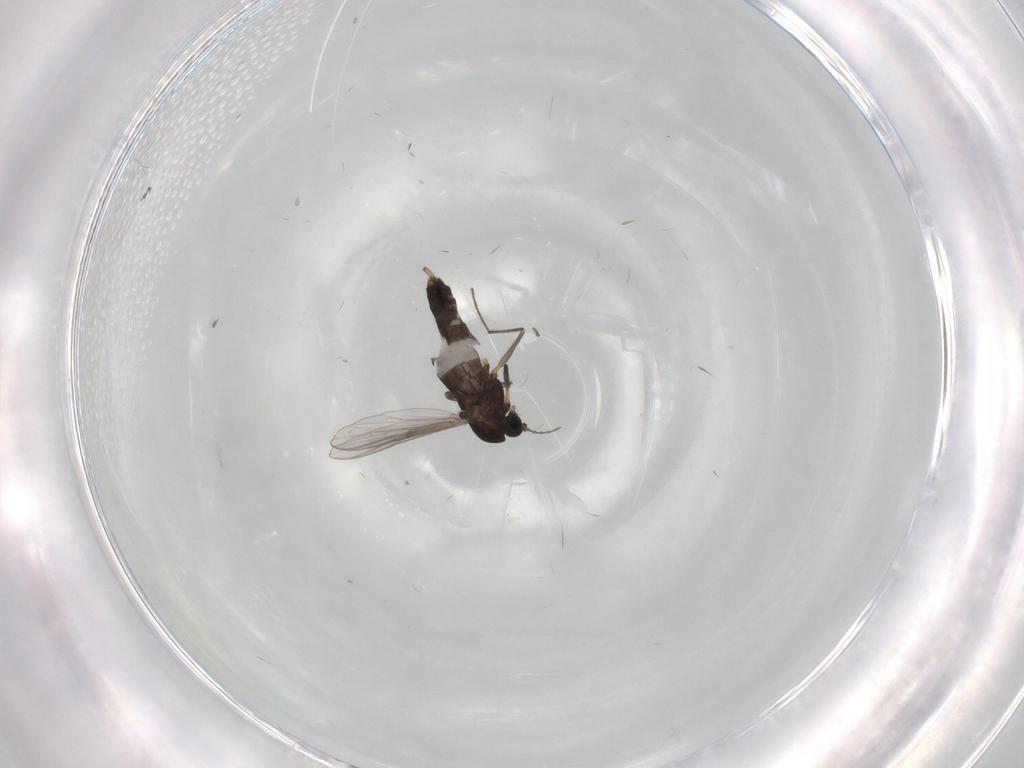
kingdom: Animalia
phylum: Arthropoda
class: Insecta
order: Diptera
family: Chironomidae
